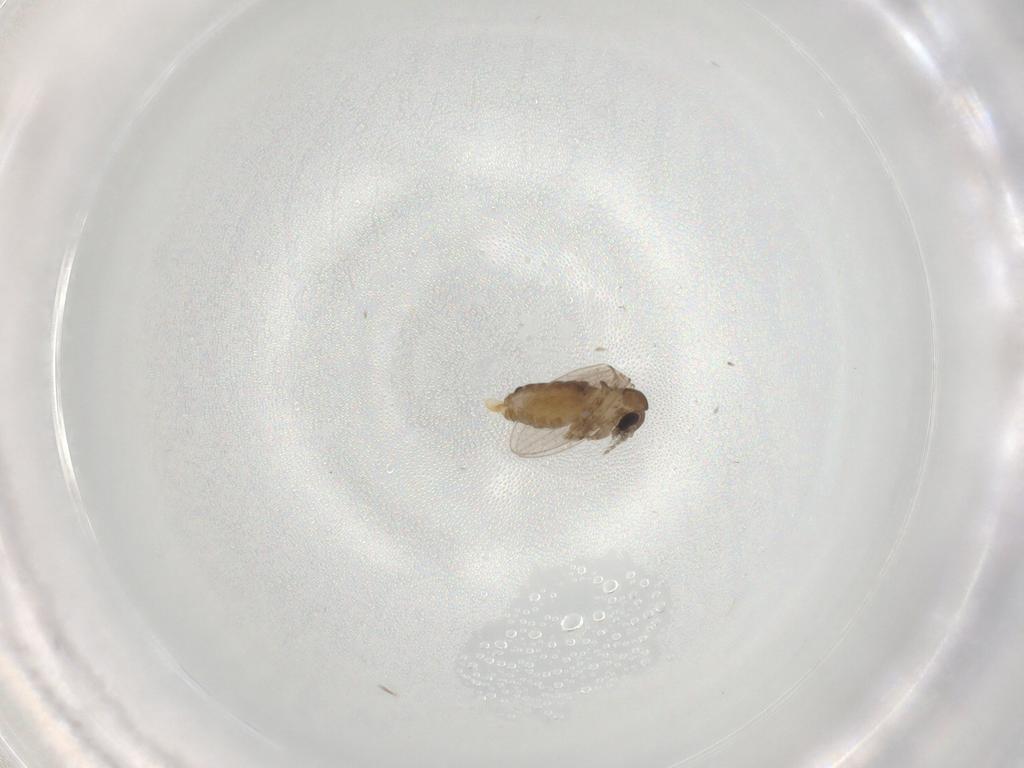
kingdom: Animalia
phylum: Arthropoda
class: Insecta
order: Diptera
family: Psychodidae
